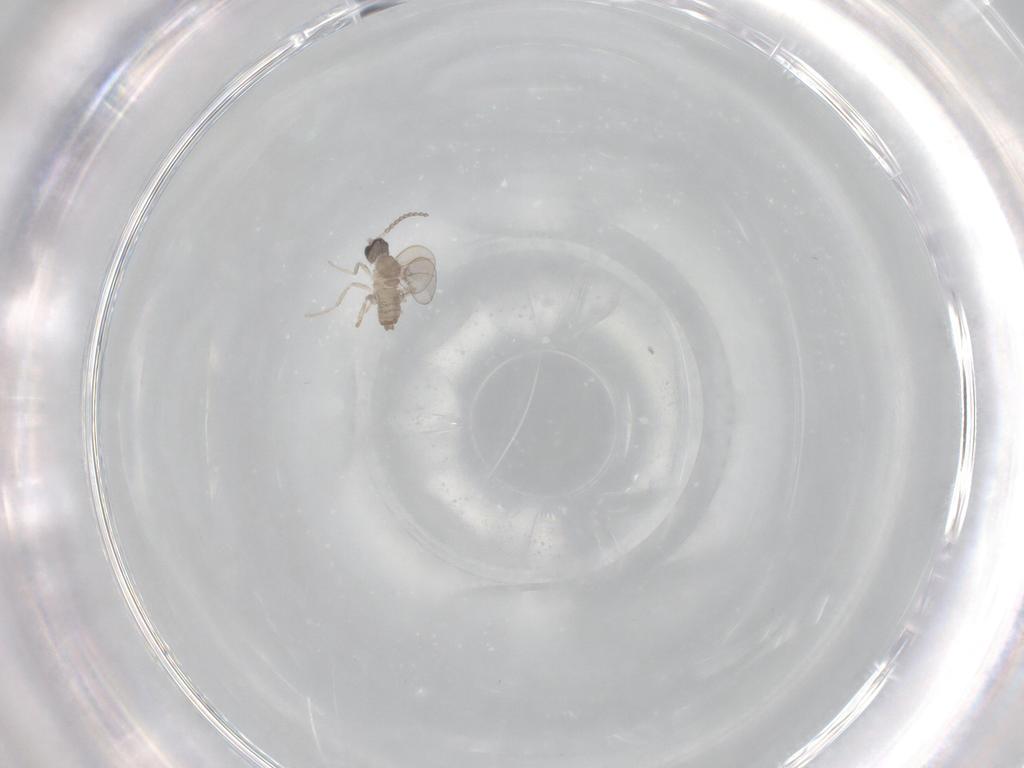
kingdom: Animalia
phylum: Arthropoda
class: Insecta
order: Diptera
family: Cecidomyiidae
